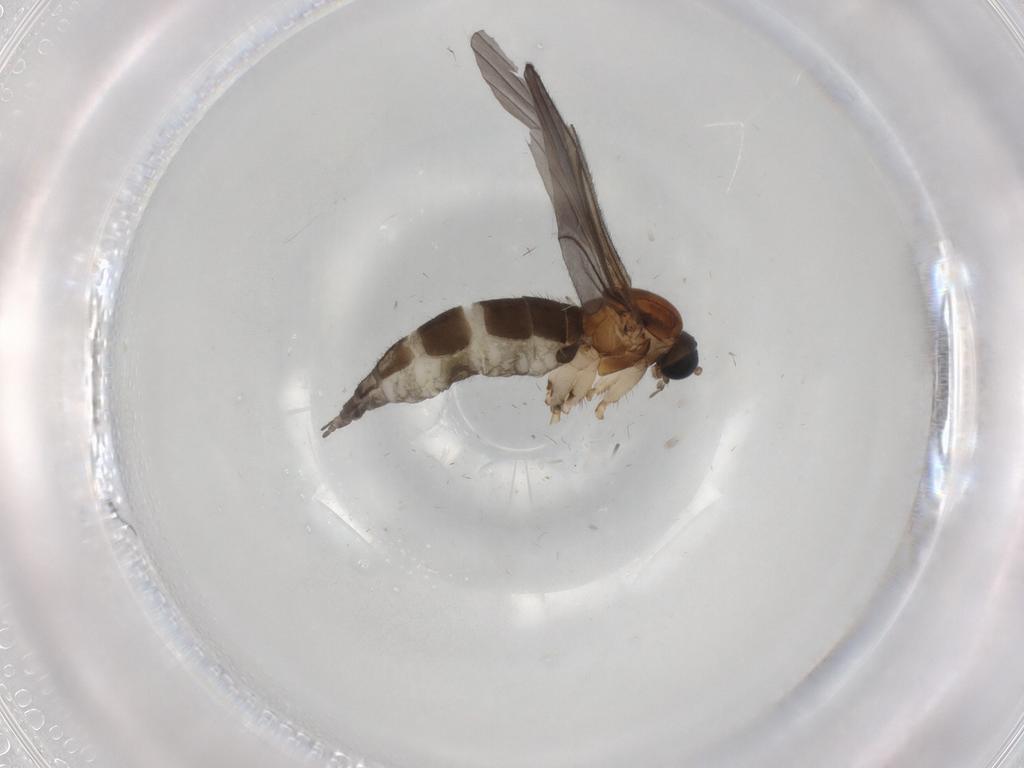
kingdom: Animalia
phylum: Arthropoda
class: Insecta
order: Diptera
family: Sciaridae
